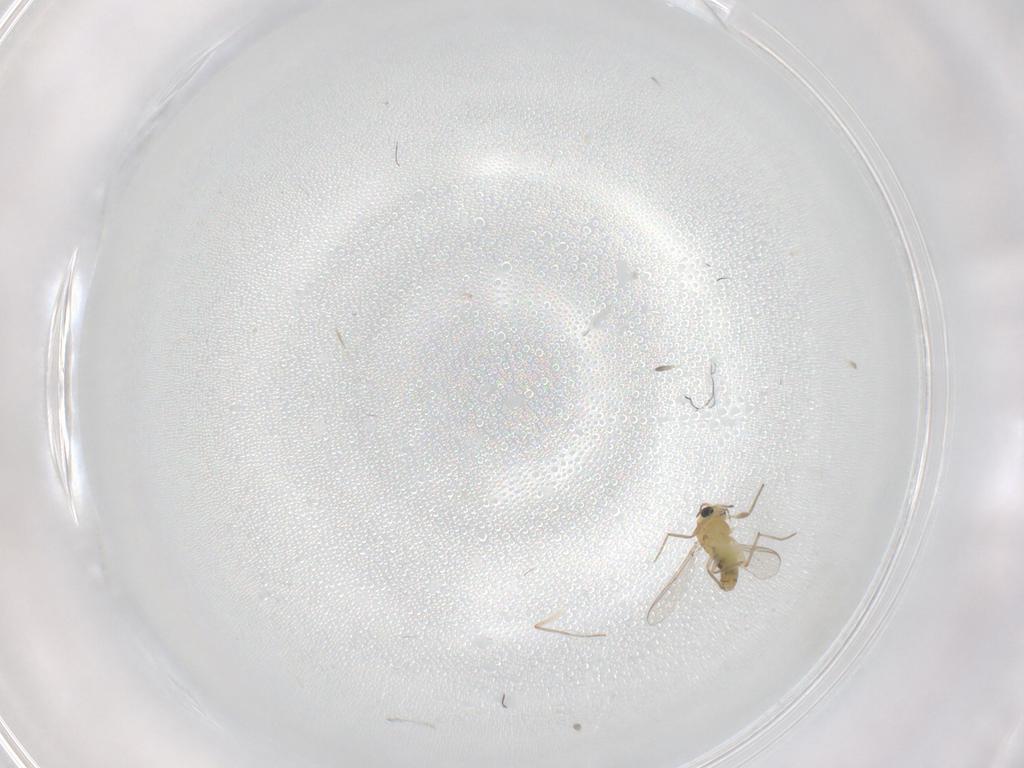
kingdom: Animalia
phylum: Arthropoda
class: Insecta
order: Diptera
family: Chironomidae
